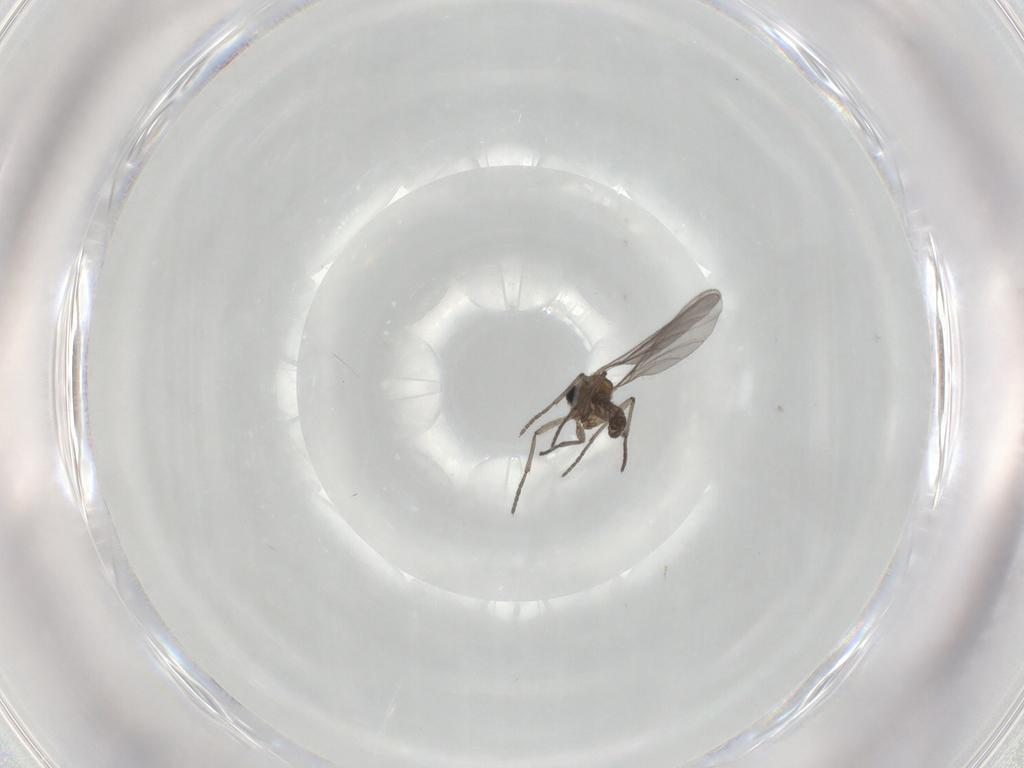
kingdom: Animalia
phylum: Arthropoda
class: Insecta
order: Diptera
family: Sciaridae
